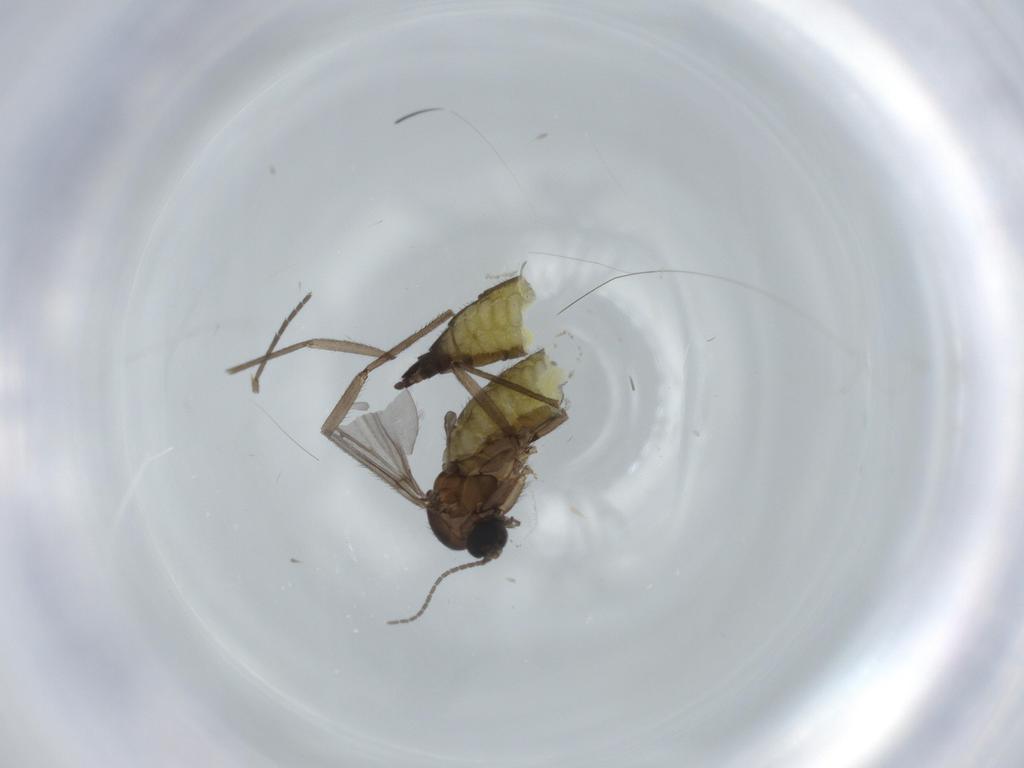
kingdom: Animalia
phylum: Arthropoda
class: Insecta
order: Diptera
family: Sciaridae
